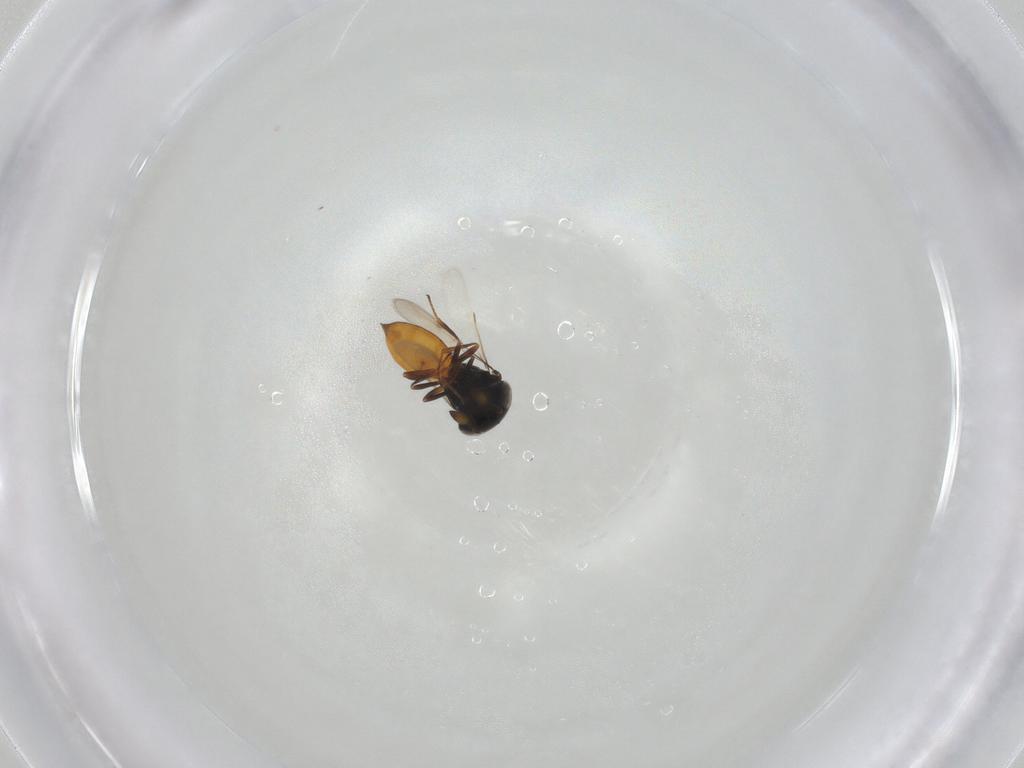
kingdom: Animalia
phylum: Arthropoda
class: Insecta
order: Hymenoptera
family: Scelionidae
